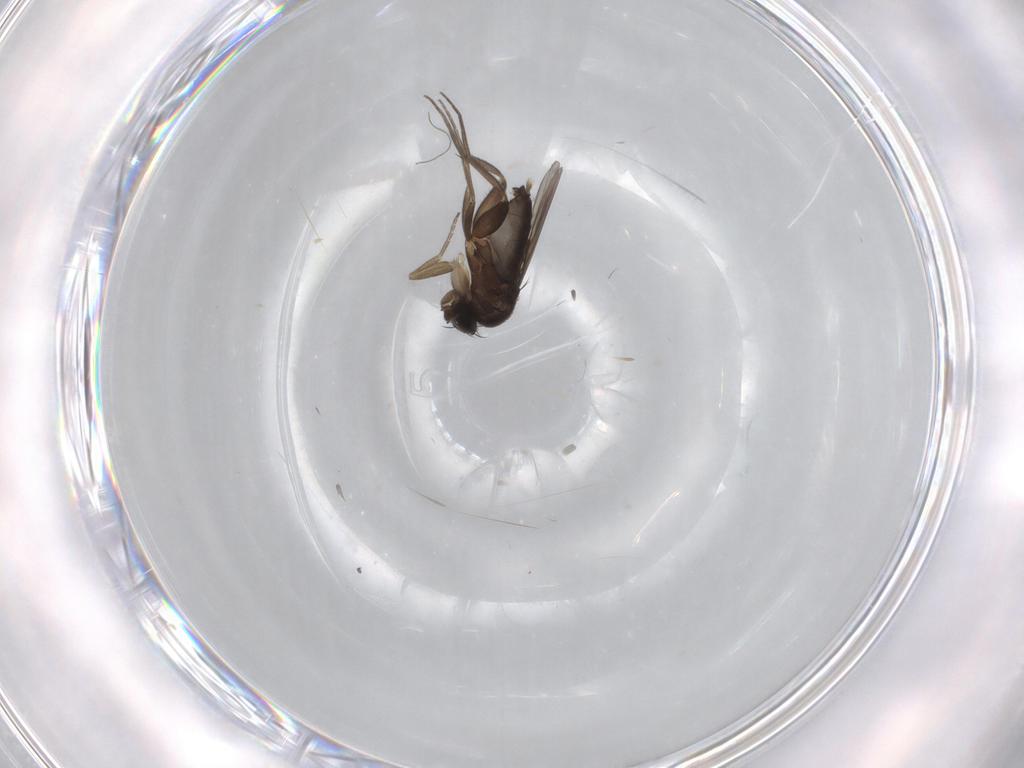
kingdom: Animalia
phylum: Arthropoda
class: Insecta
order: Diptera
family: Phoridae
